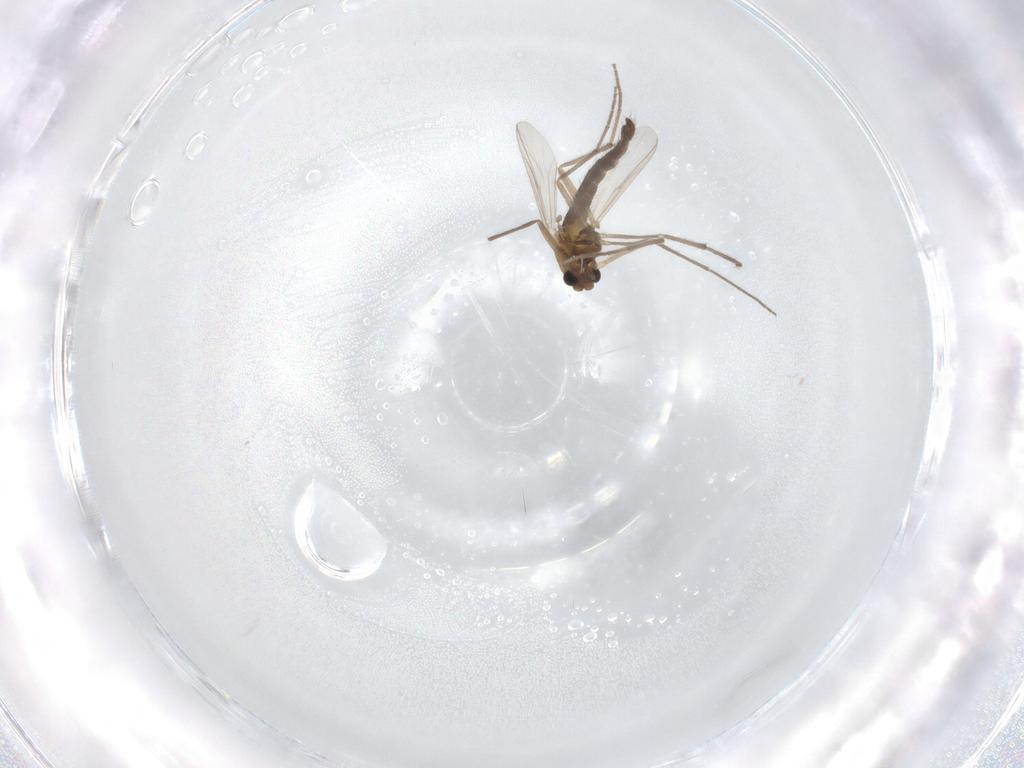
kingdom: Animalia
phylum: Arthropoda
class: Insecta
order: Diptera
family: Chironomidae
